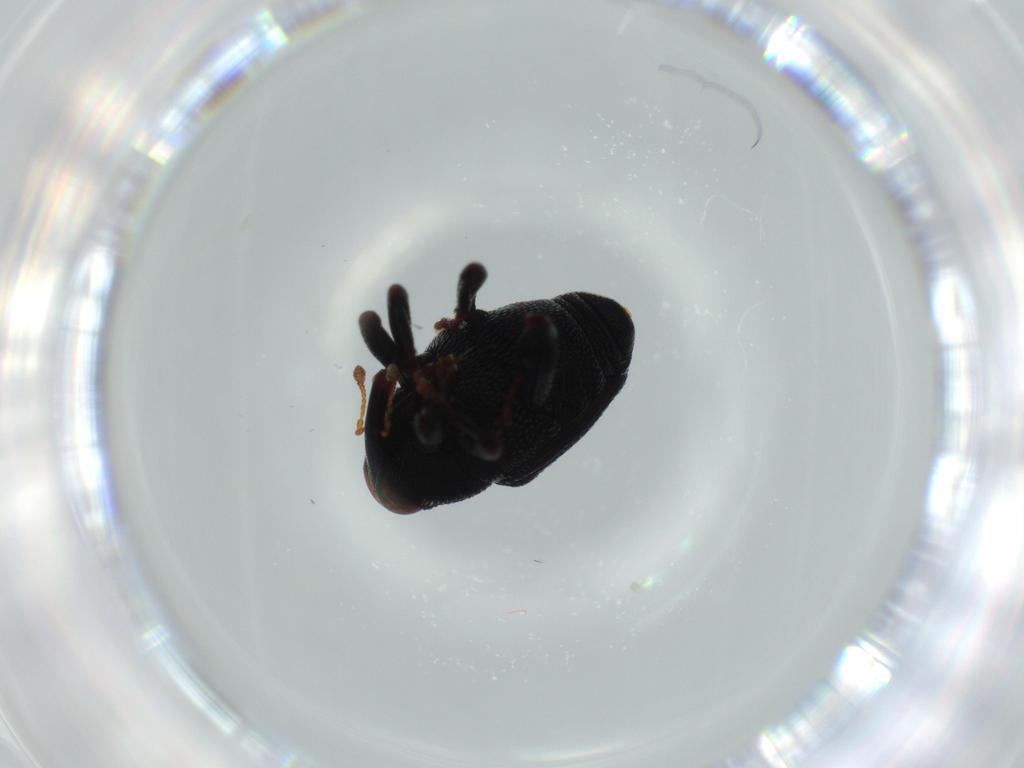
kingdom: Animalia
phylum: Arthropoda
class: Insecta
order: Coleoptera
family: Curculionidae
